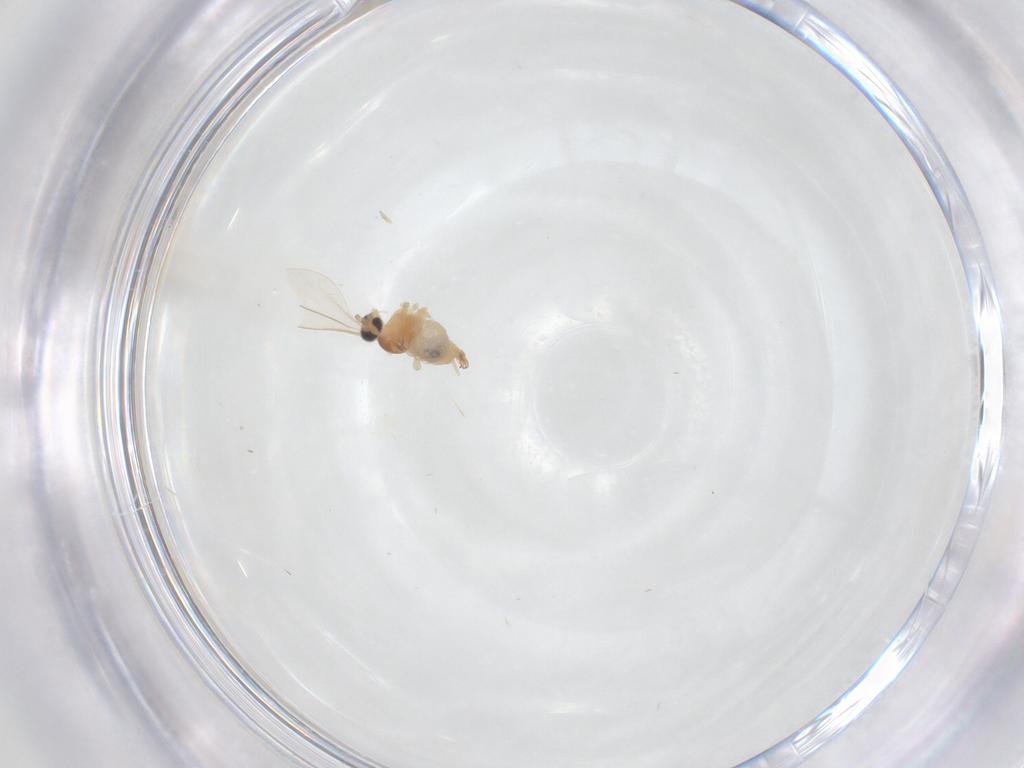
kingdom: Animalia
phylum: Arthropoda
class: Insecta
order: Diptera
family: Cecidomyiidae
